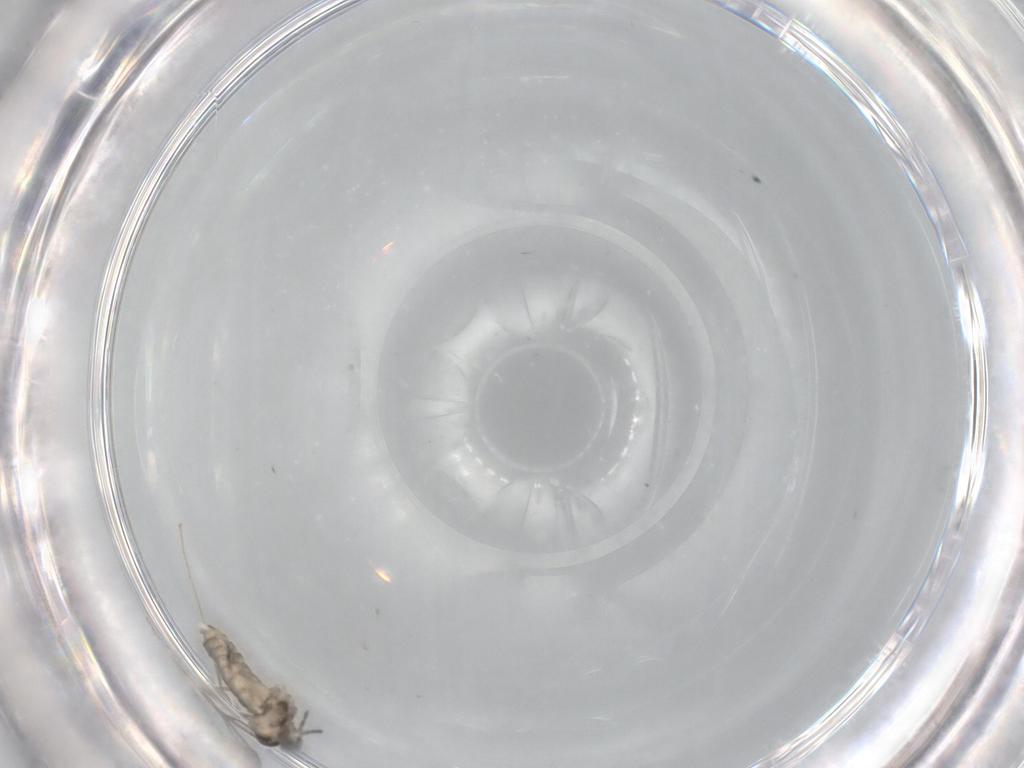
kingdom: Animalia
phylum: Arthropoda
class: Insecta
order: Diptera
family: Cecidomyiidae
